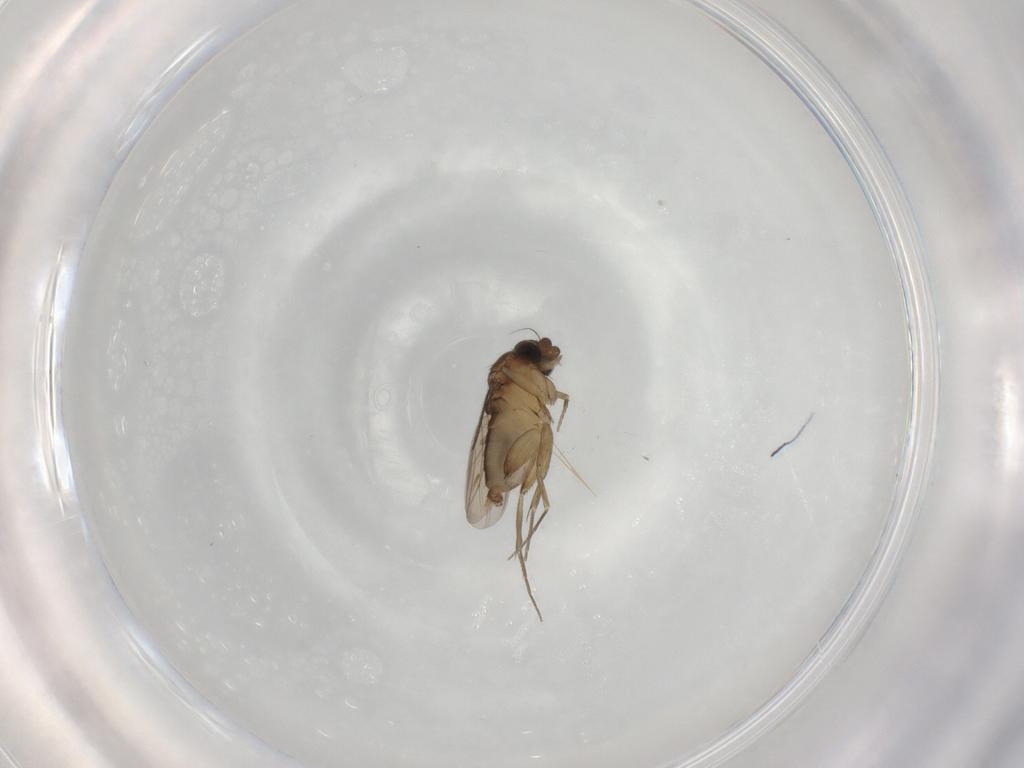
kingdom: Animalia
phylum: Arthropoda
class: Insecta
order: Diptera
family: Phoridae
